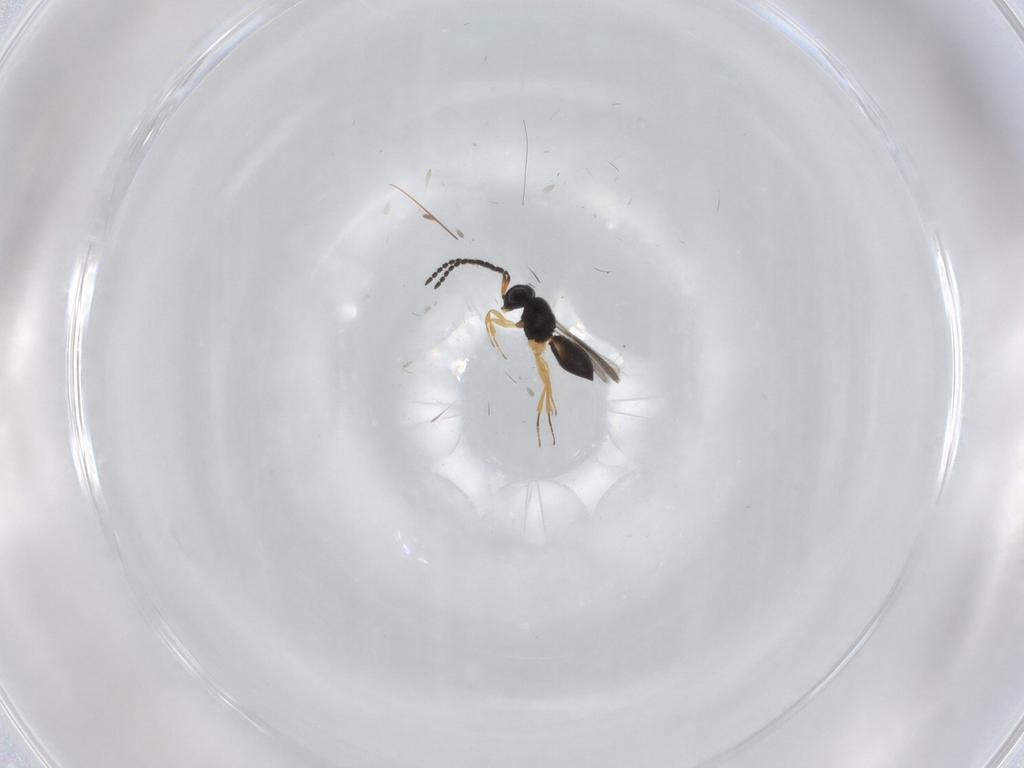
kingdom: Animalia
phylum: Arthropoda
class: Insecta
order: Hymenoptera
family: Scelionidae
